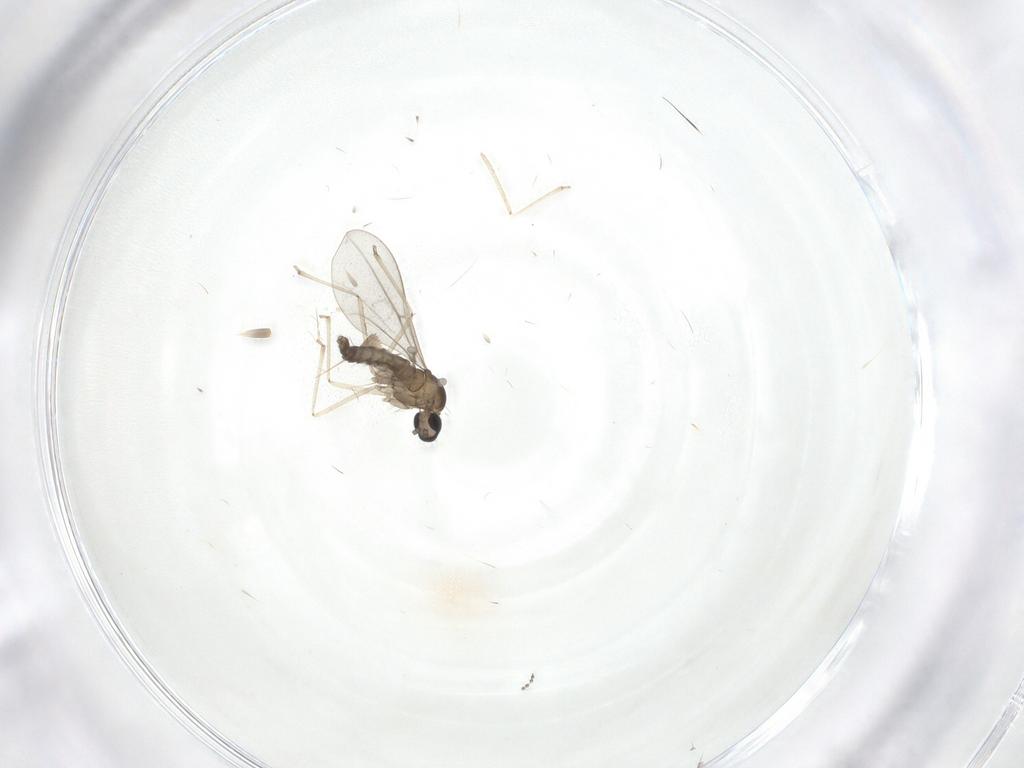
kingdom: Animalia
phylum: Arthropoda
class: Insecta
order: Diptera
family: Cecidomyiidae
